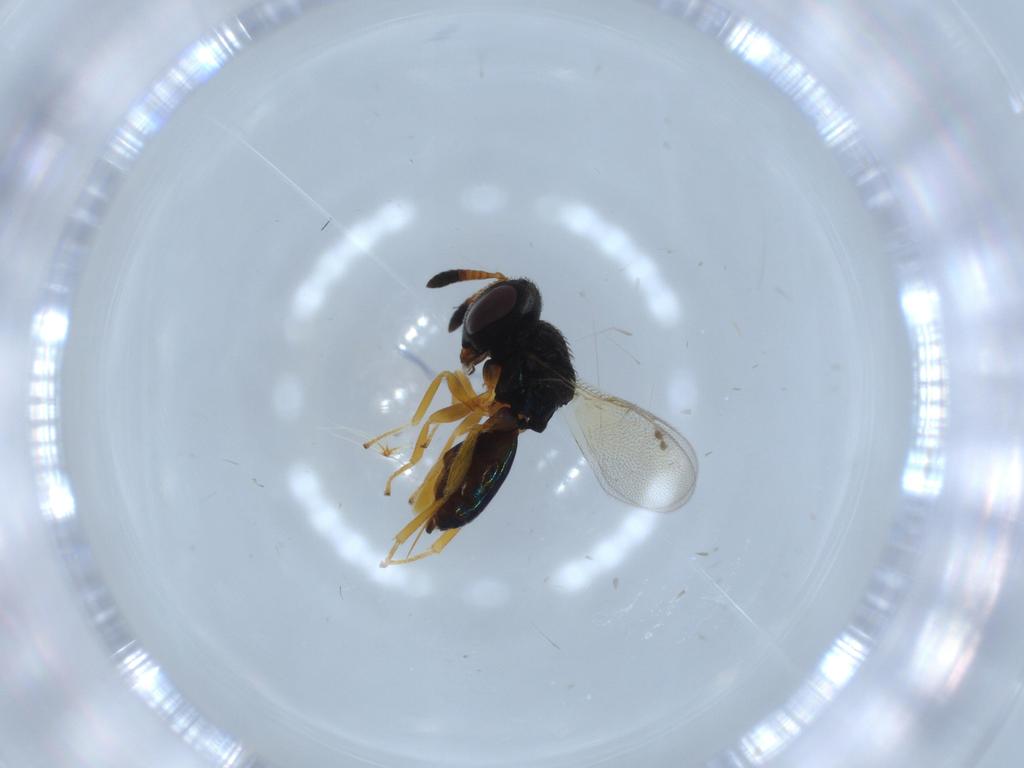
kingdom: Animalia
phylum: Arthropoda
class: Insecta
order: Hymenoptera
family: Agaonidae
